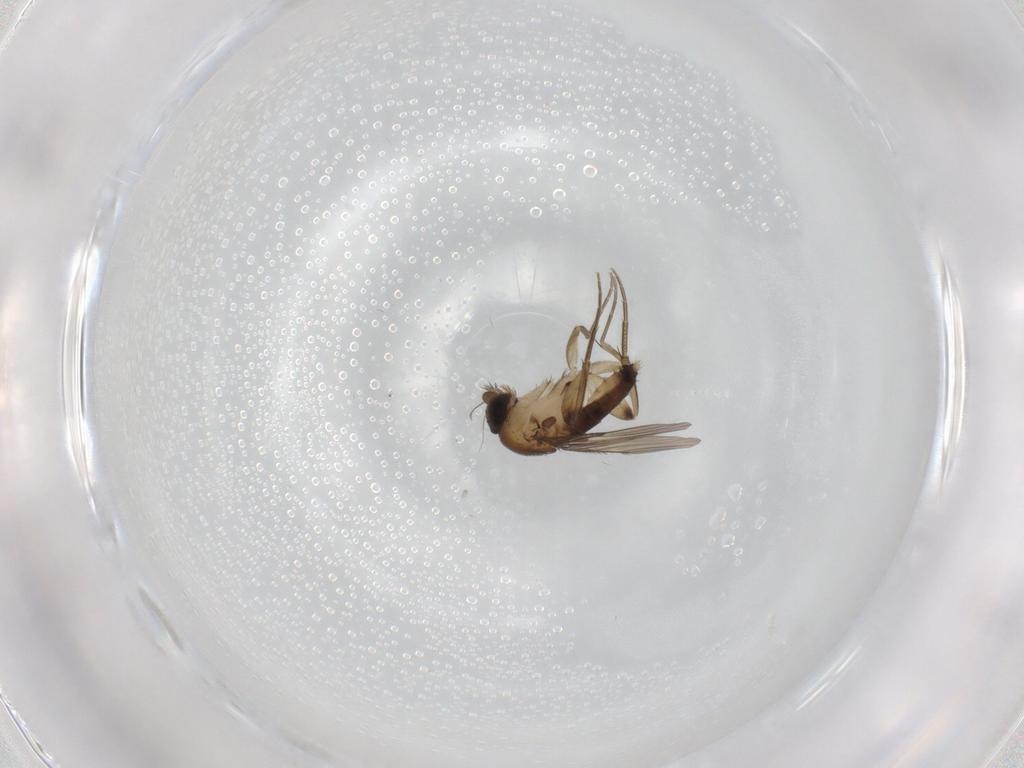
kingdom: Animalia
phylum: Arthropoda
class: Insecta
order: Diptera
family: Phoridae
